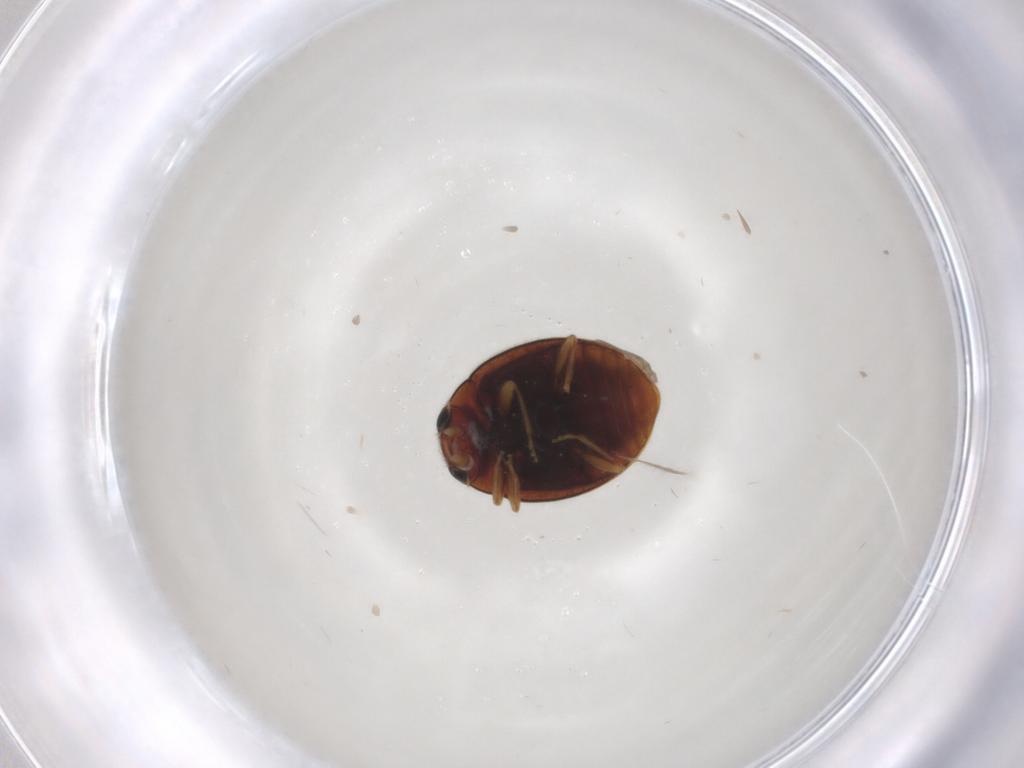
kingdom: Animalia
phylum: Arthropoda
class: Insecta
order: Coleoptera
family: Coccinellidae
